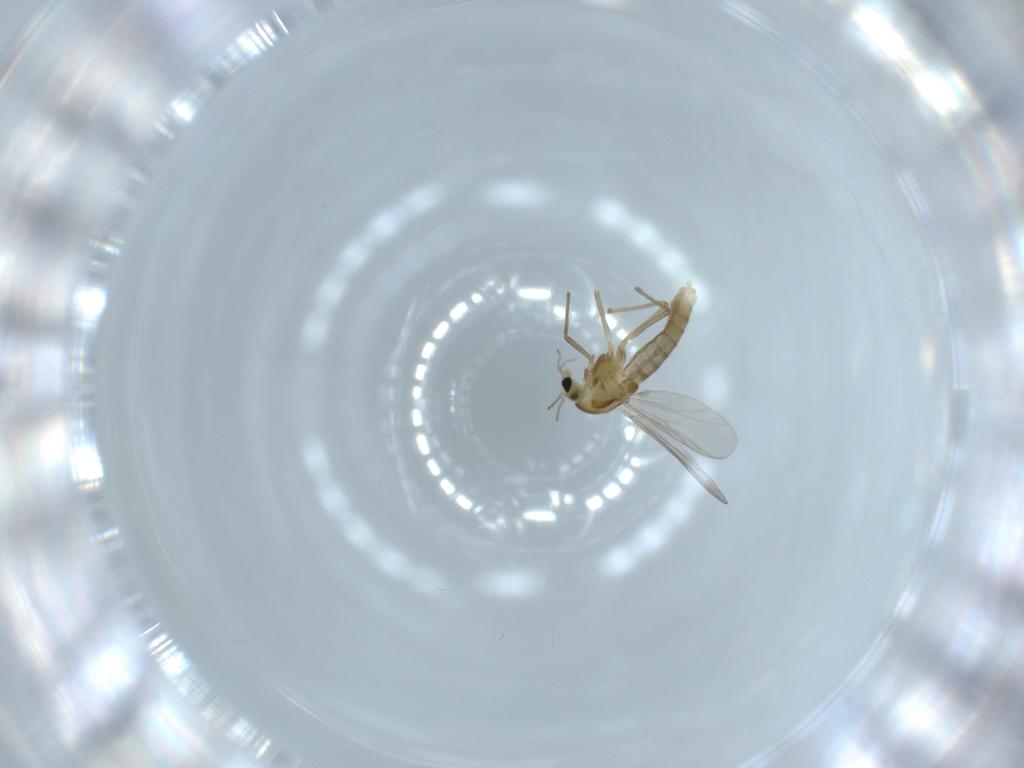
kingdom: Animalia
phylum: Arthropoda
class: Insecta
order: Diptera
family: Chironomidae
